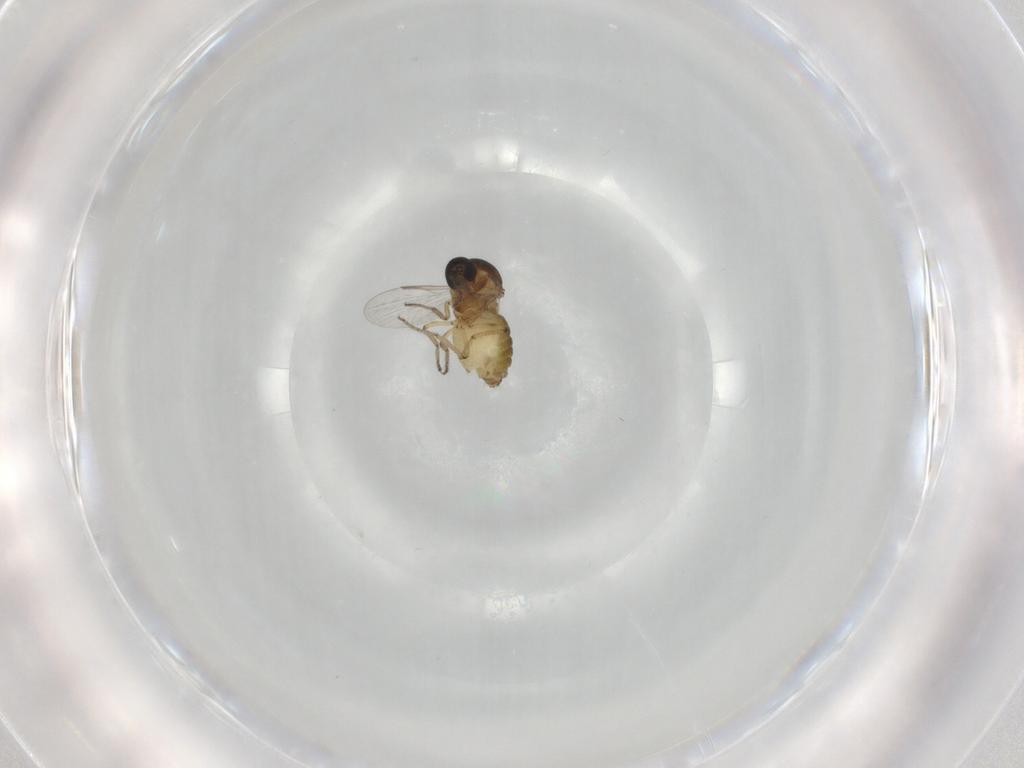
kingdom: Animalia
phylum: Arthropoda
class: Insecta
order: Diptera
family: Ceratopogonidae
